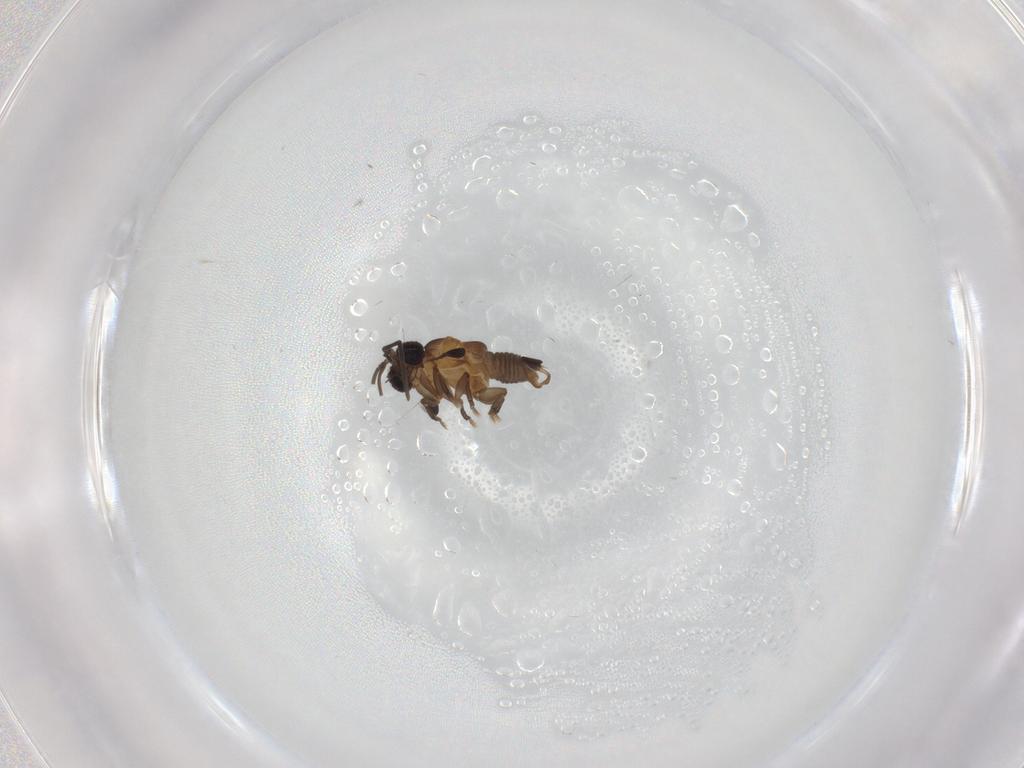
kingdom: Animalia
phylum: Arthropoda
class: Insecta
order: Strepsiptera
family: Myrmecolacidae
